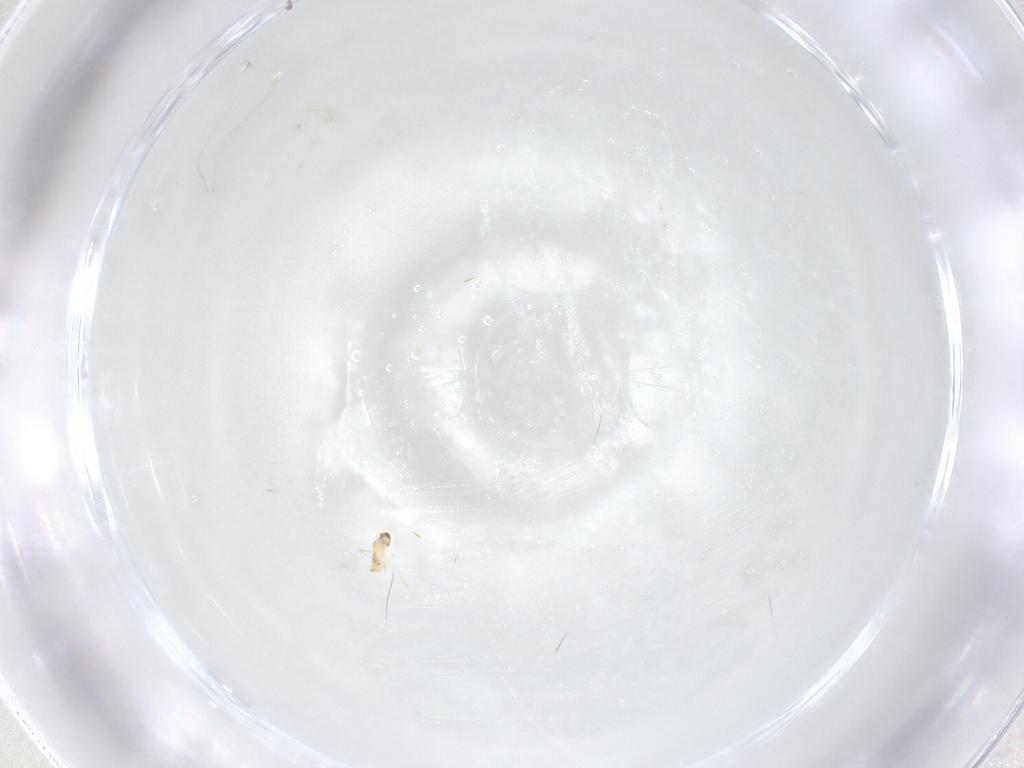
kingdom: Animalia
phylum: Arthropoda
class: Insecta
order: Hymenoptera
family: Mymaridae
